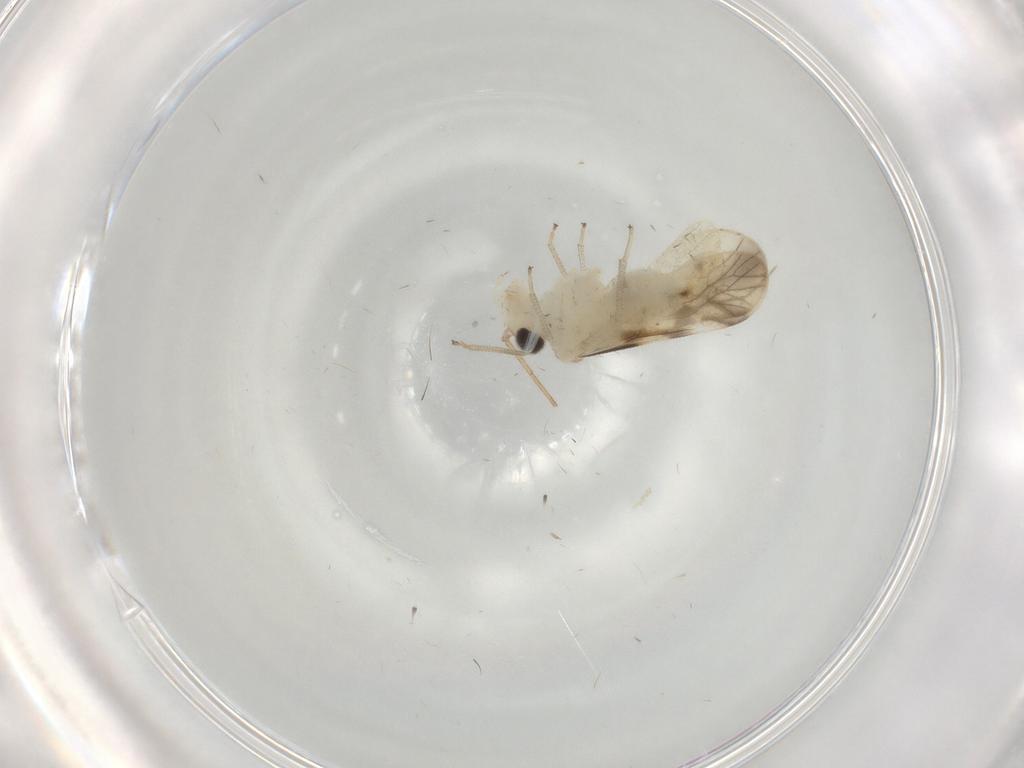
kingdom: Animalia
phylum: Arthropoda
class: Insecta
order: Psocodea
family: Caeciliusidae
